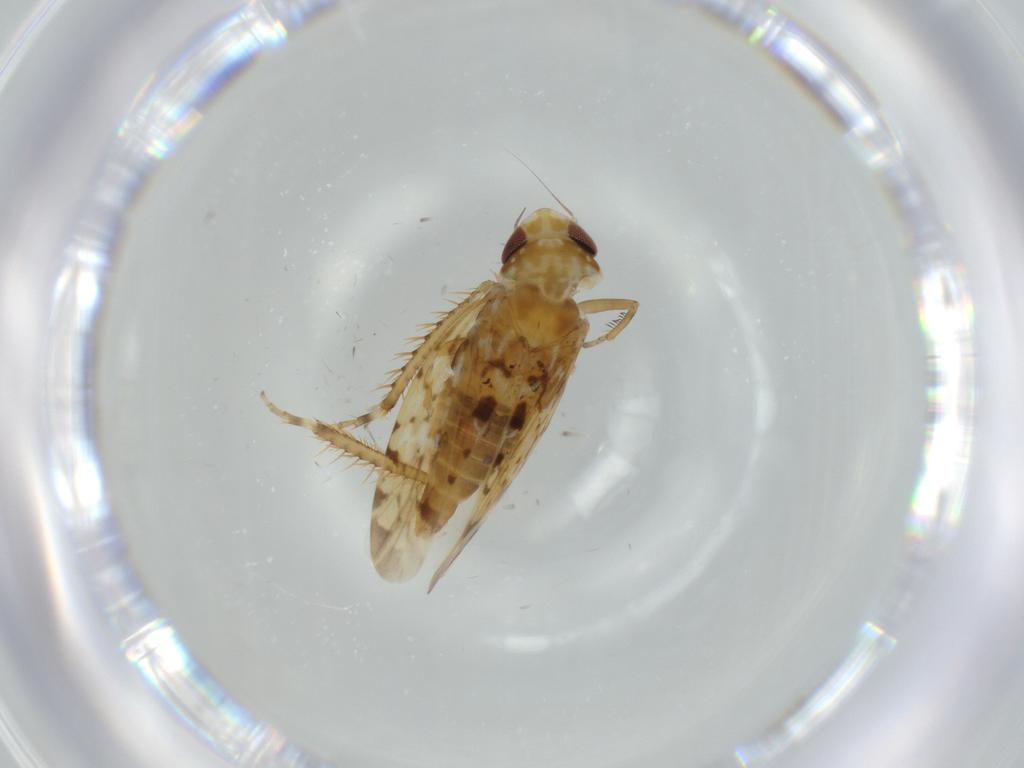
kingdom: Animalia
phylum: Arthropoda
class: Insecta
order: Hemiptera
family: Cicadellidae
